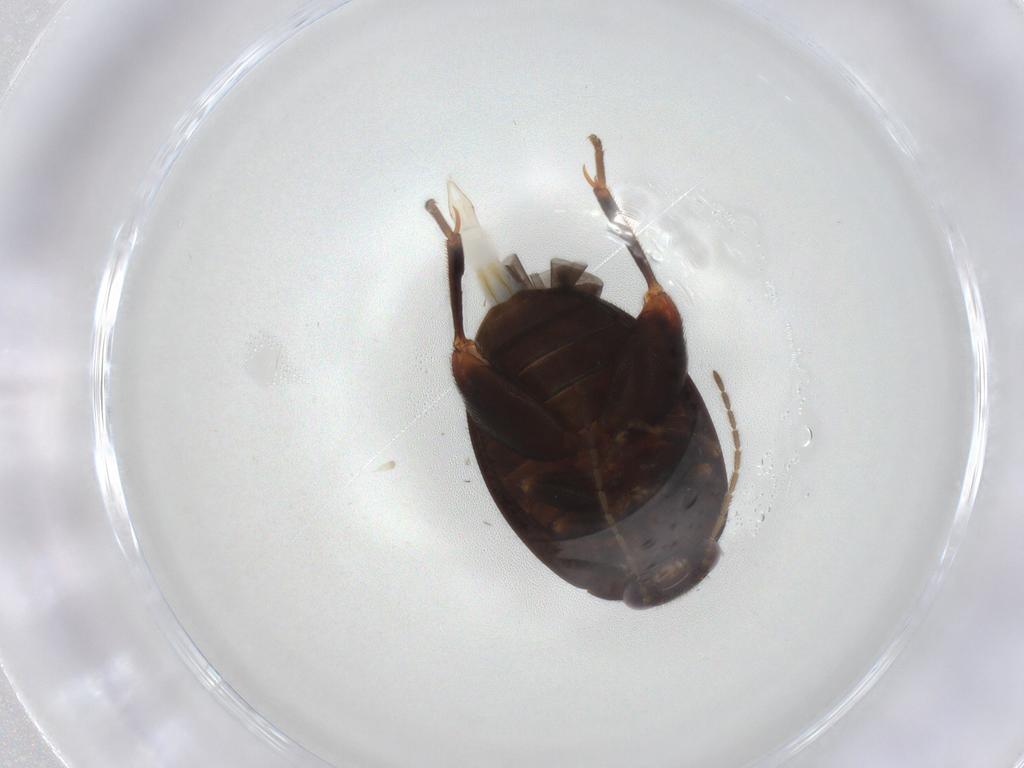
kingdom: Animalia
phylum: Arthropoda
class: Insecta
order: Coleoptera
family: Scirtidae
